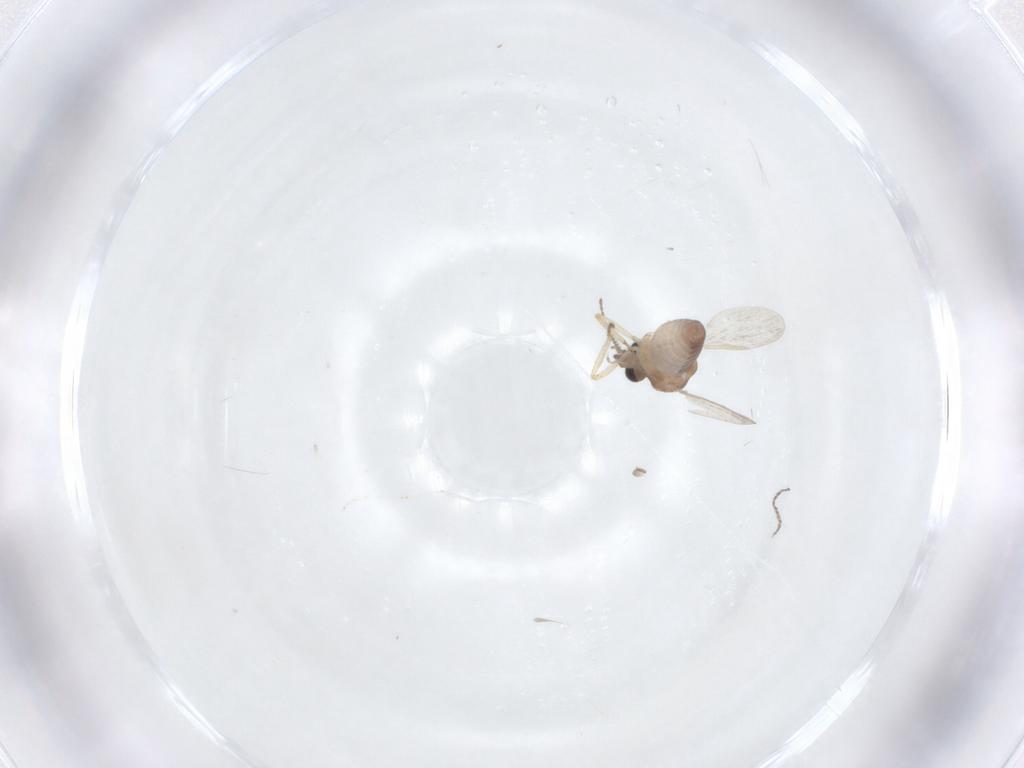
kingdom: Animalia
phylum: Arthropoda
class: Insecta
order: Diptera
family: Ceratopogonidae
